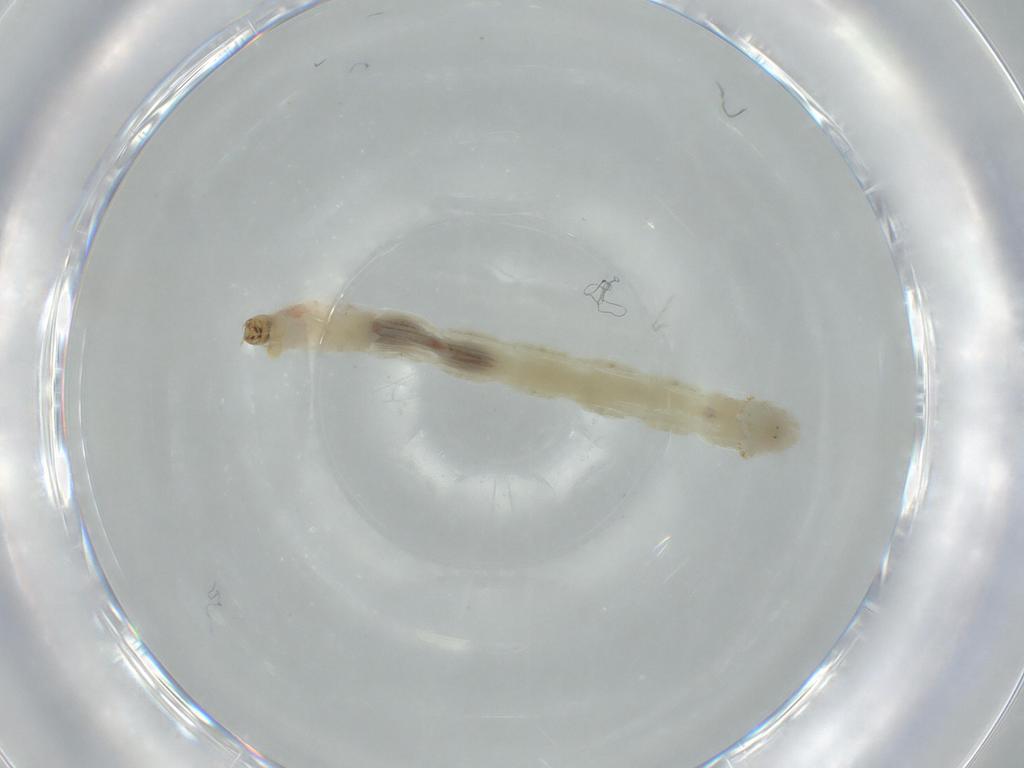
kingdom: Animalia
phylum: Arthropoda
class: Insecta
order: Diptera
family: Chironomidae
